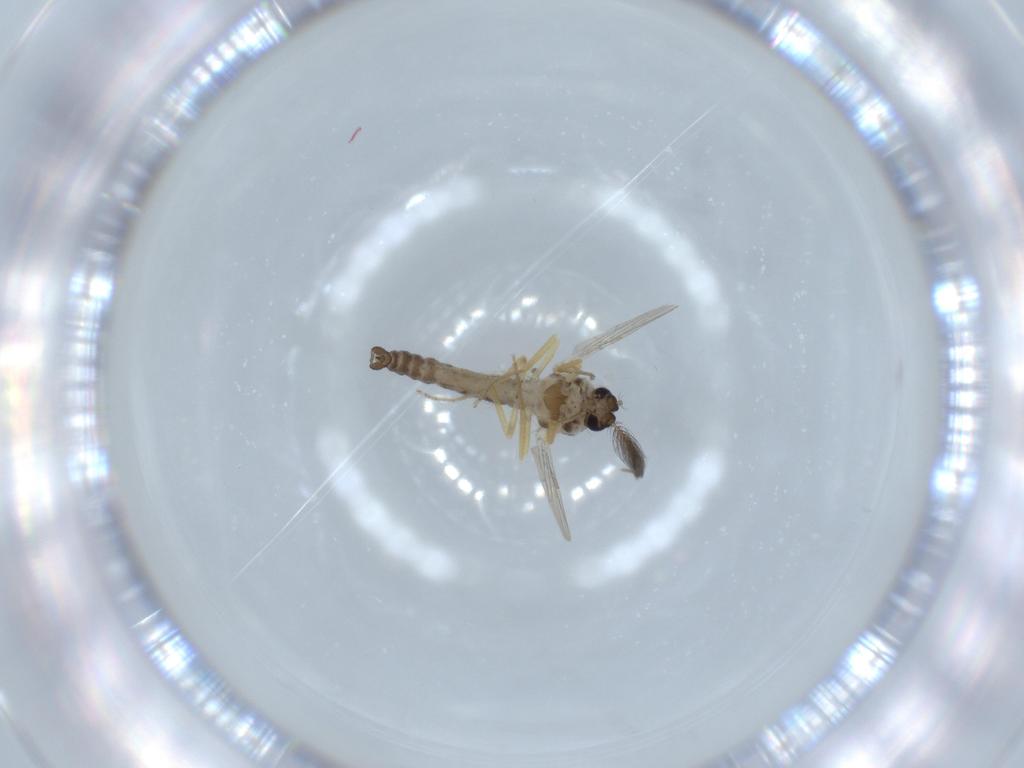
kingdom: Animalia
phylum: Arthropoda
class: Insecta
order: Diptera
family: Ceratopogonidae
